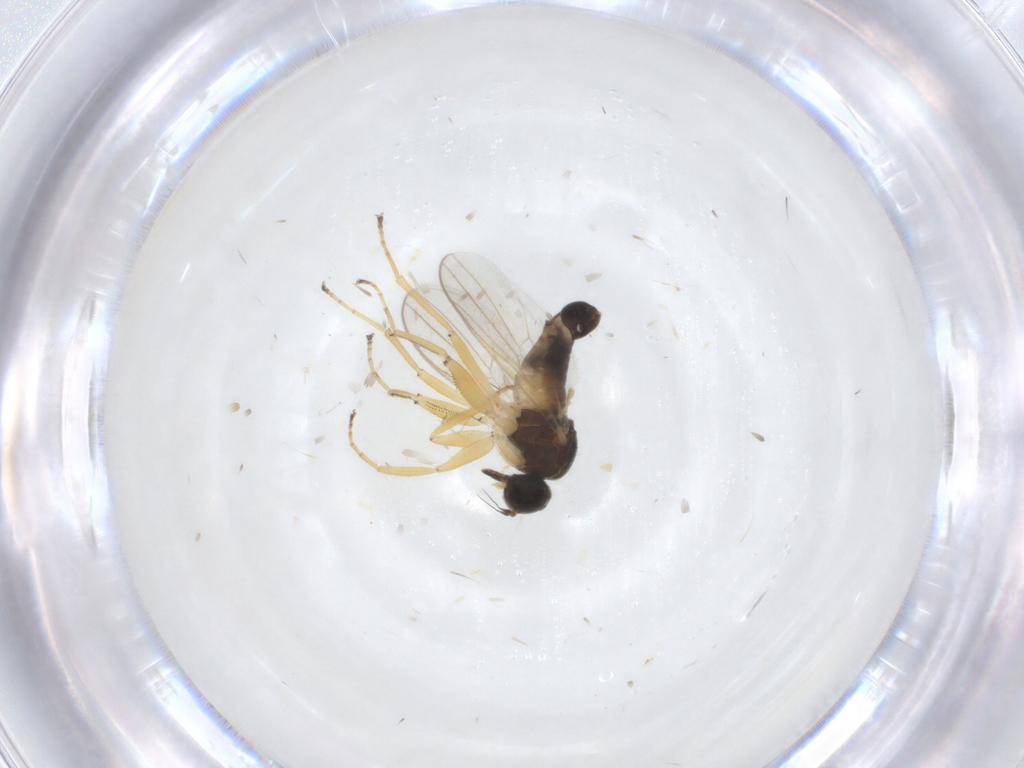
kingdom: Animalia
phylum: Arthropoda
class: Insecta
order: Diptera
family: Hybotidae
